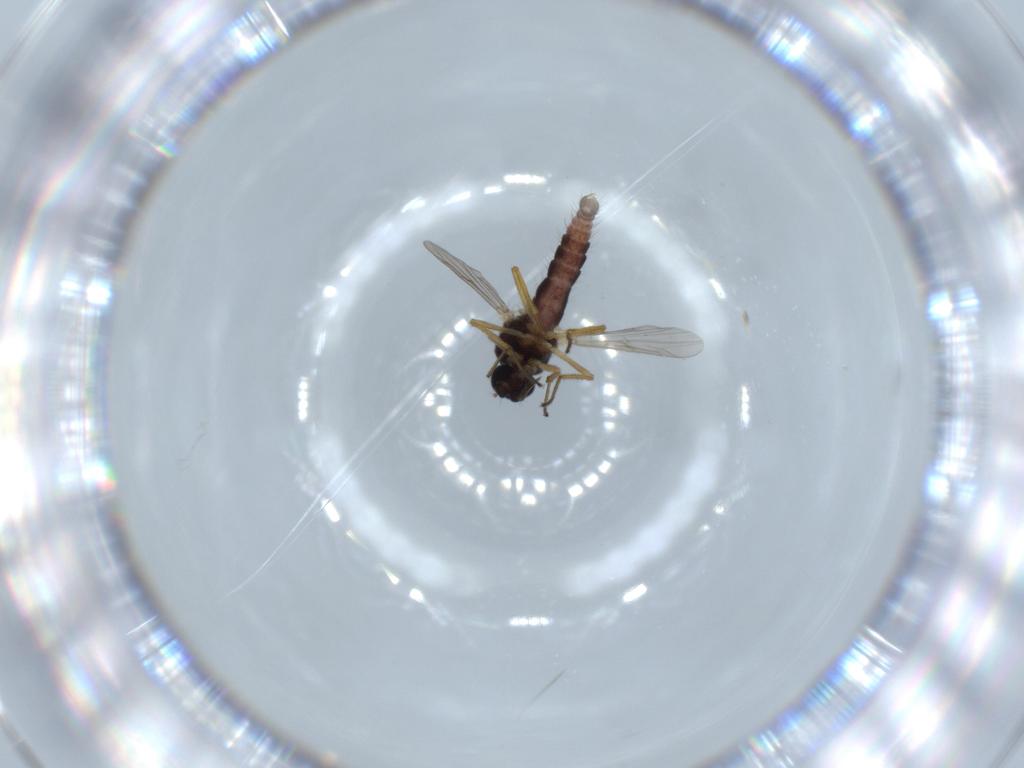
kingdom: Animalia
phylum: Arthropoda
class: Insecta
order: Diptera
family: Ceratopogonidae
